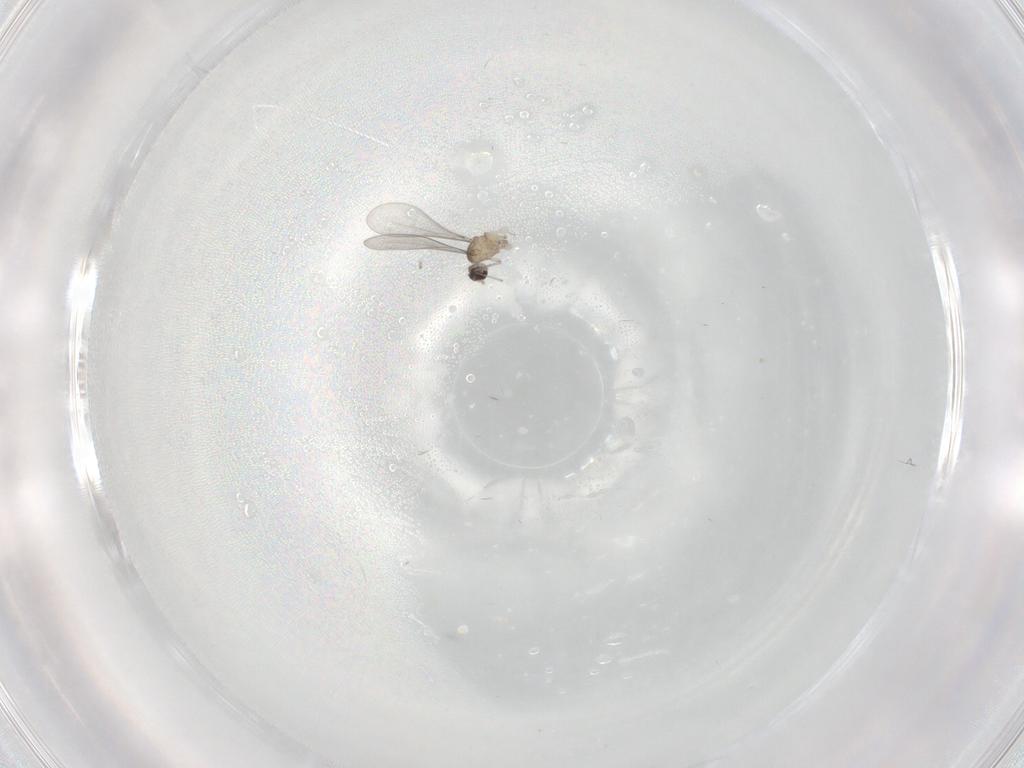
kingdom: Animalia
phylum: Arthropoda
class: Insecta
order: Diptera
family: Cecidomyiidae
